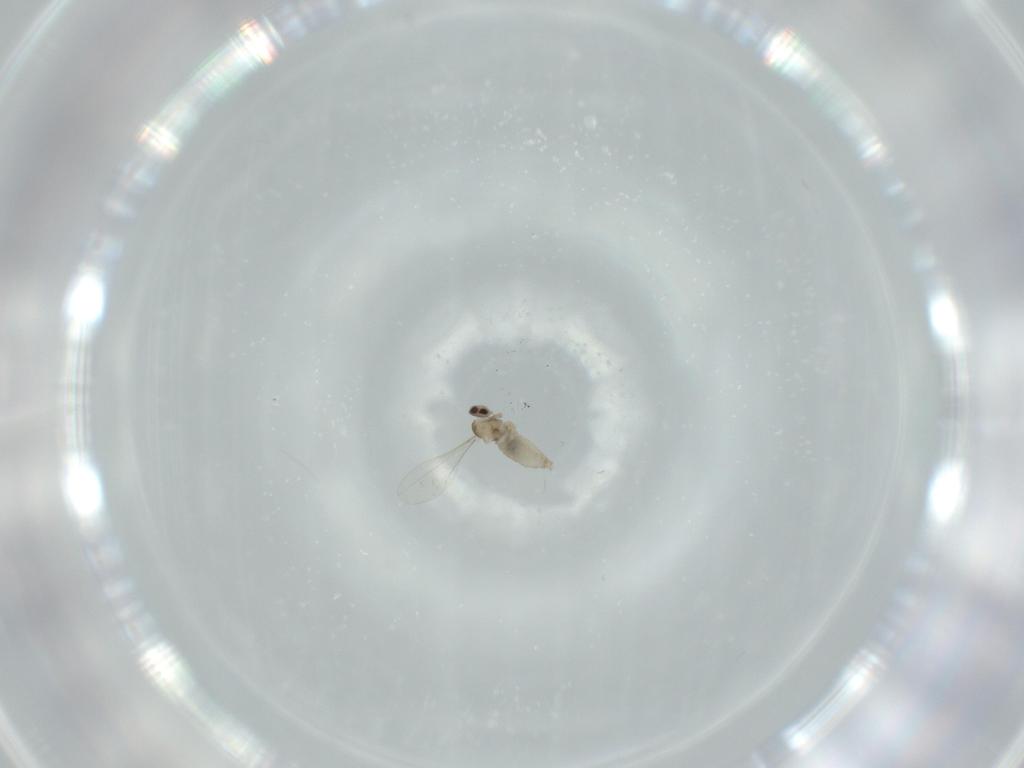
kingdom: Animalia
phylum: Arthropoda
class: Insecta
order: Diptera
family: Cecidomyiidae
